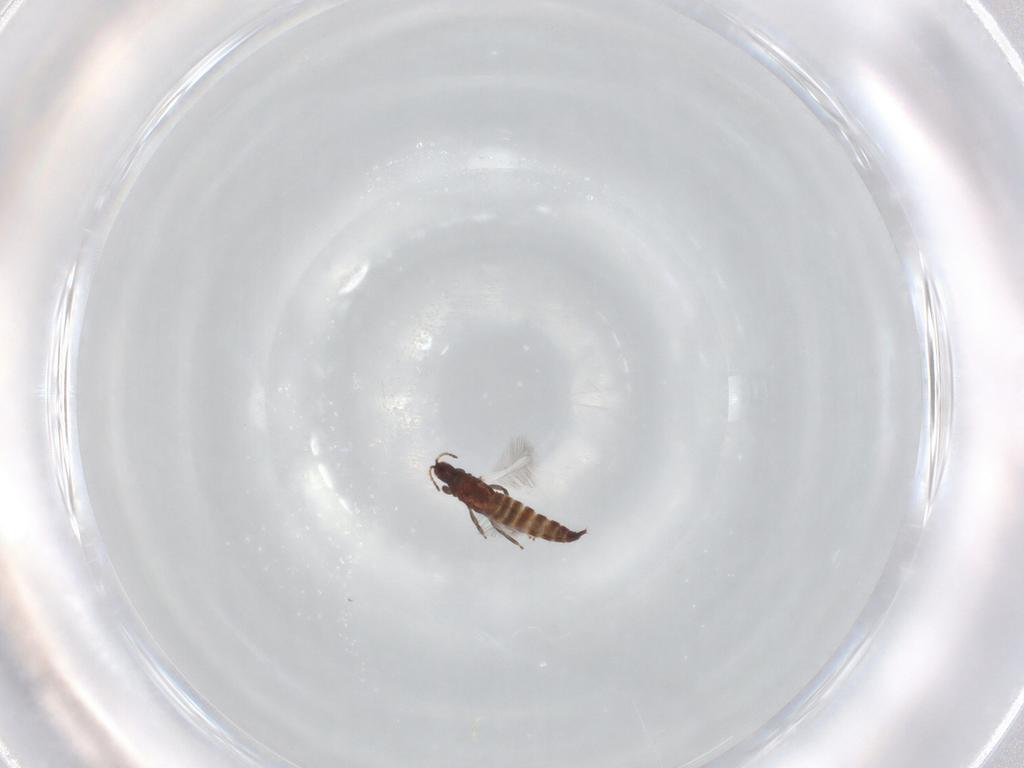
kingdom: Animalia
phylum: Arthropoda
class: Insecta
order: Thysanoptera
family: Phlaeothripidae
